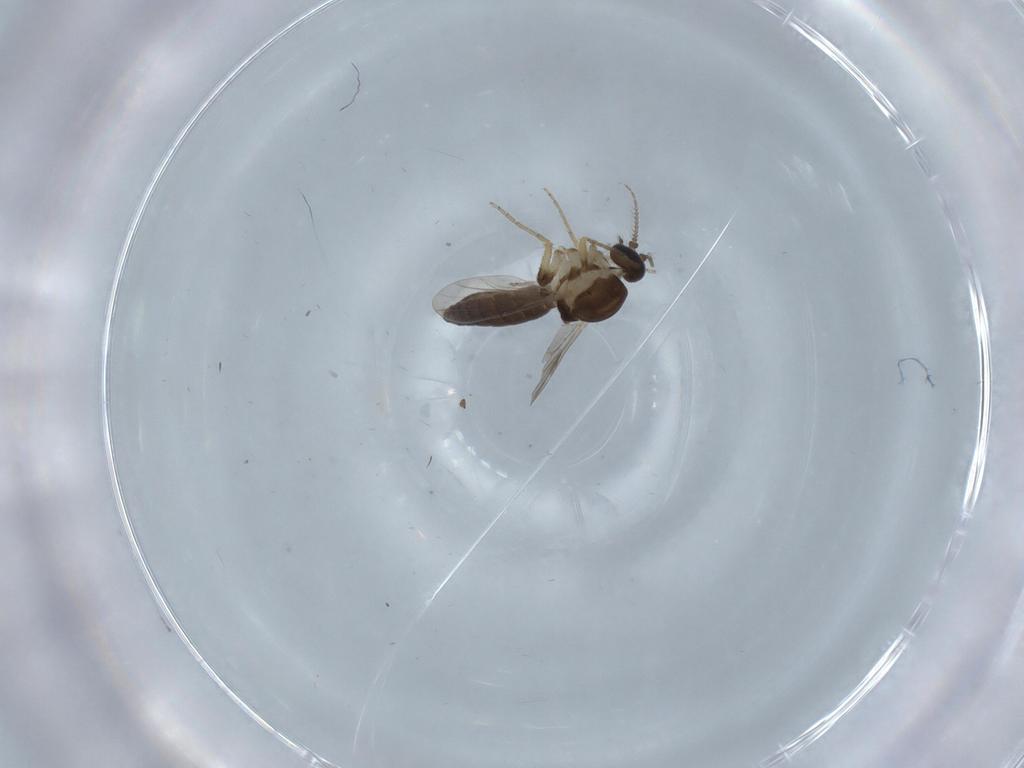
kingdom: Animalia
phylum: Arthropoda
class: Insecta
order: Diptera
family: Ceratopogonidae
